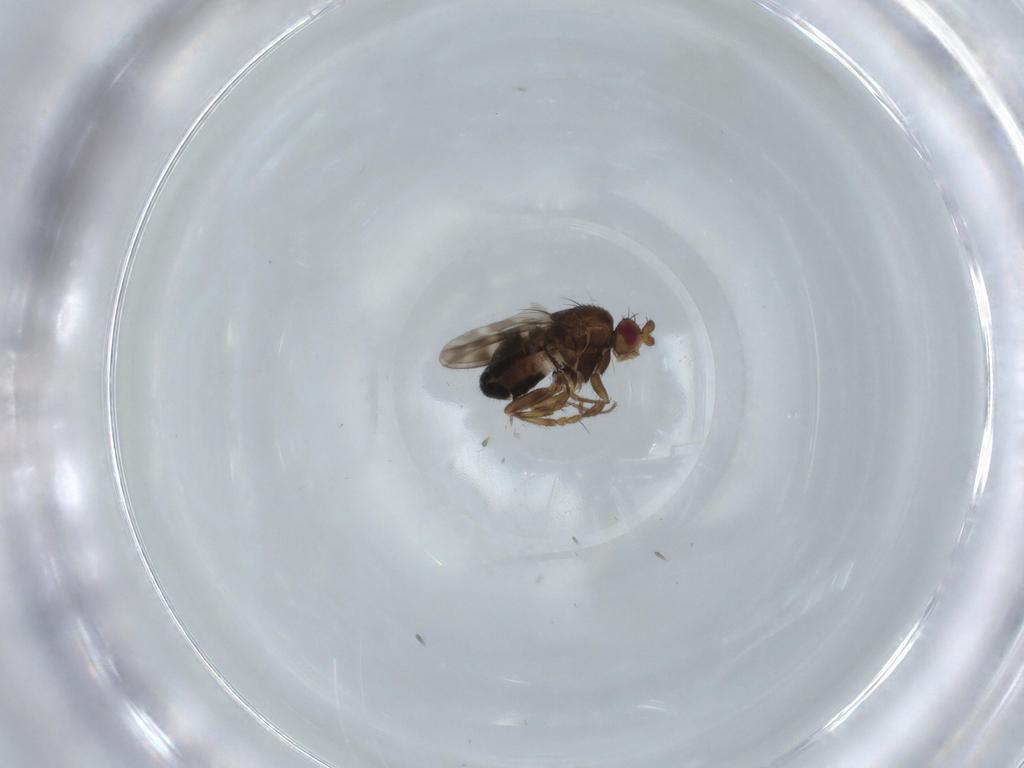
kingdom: Animalia
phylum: Arthropoda
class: Insecta
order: Diptera
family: Sphaeroceridae
